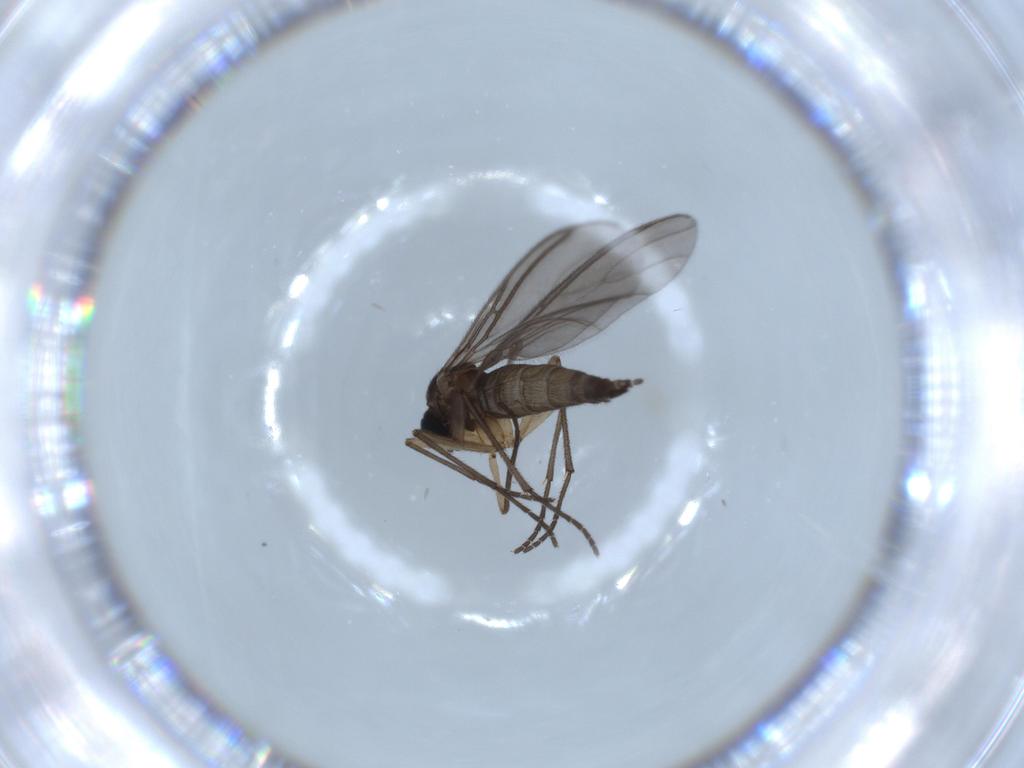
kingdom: Animalia
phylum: Arthropoda
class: Insecta
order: Diptera
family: Sciaridae
